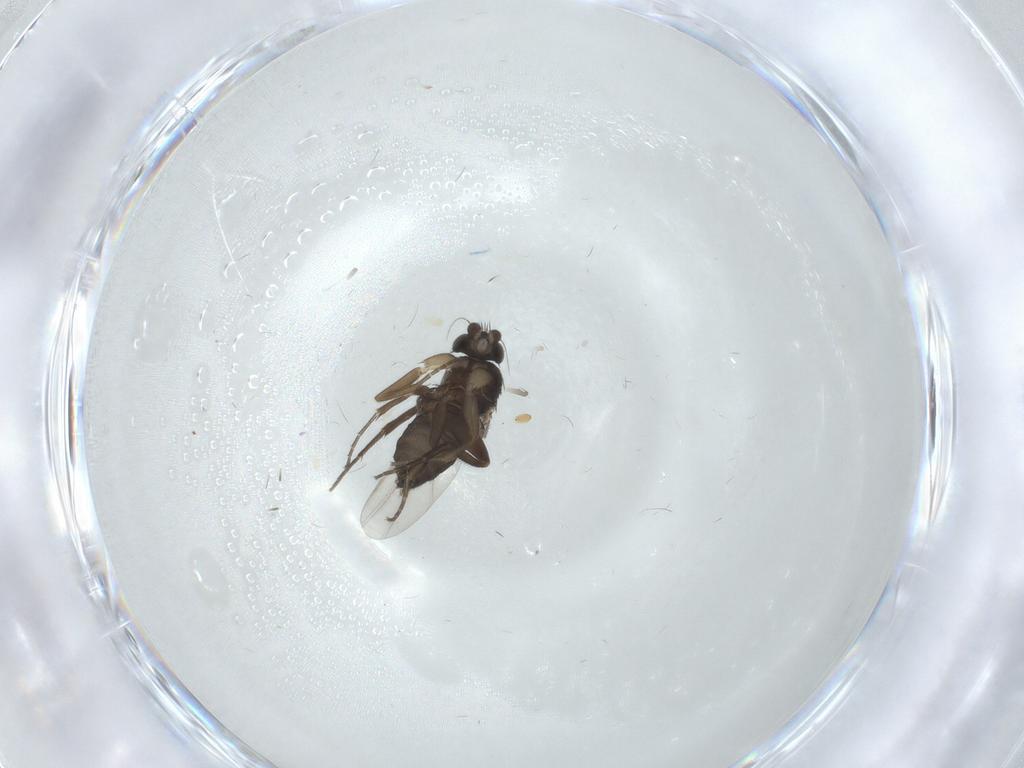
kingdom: Animalia
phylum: Arthropoda
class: Insecta
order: Diptera
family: Phoridae
